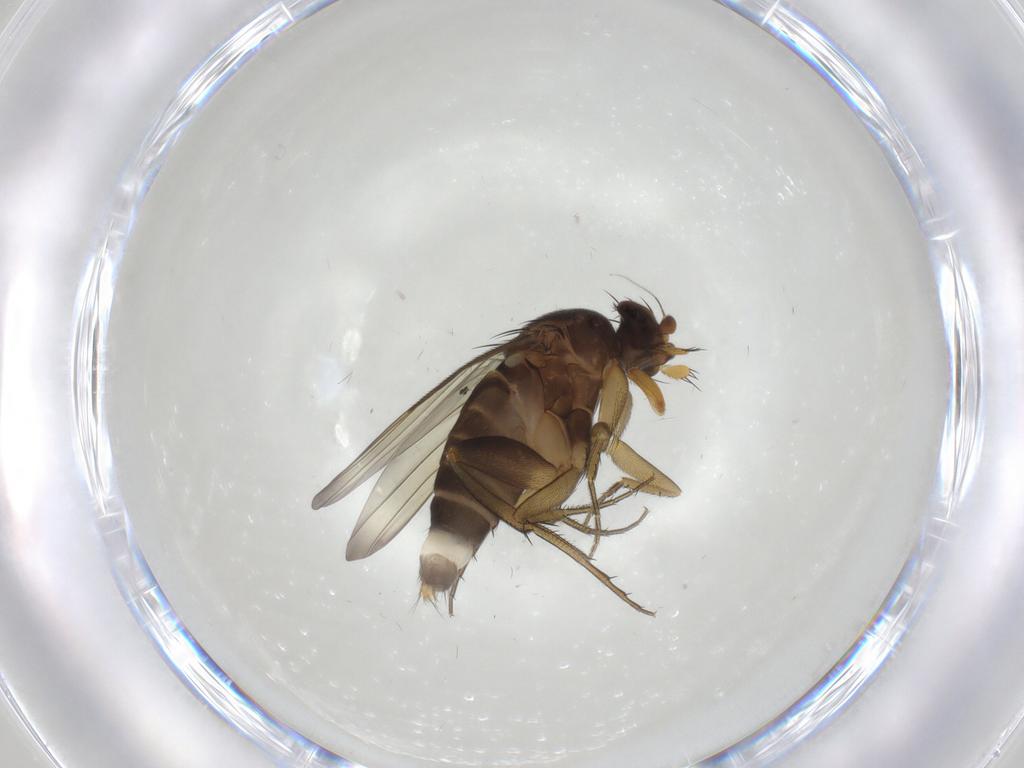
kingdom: Animalia
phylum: Arthropoda
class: Insecta
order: Diptera
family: Phoridae
